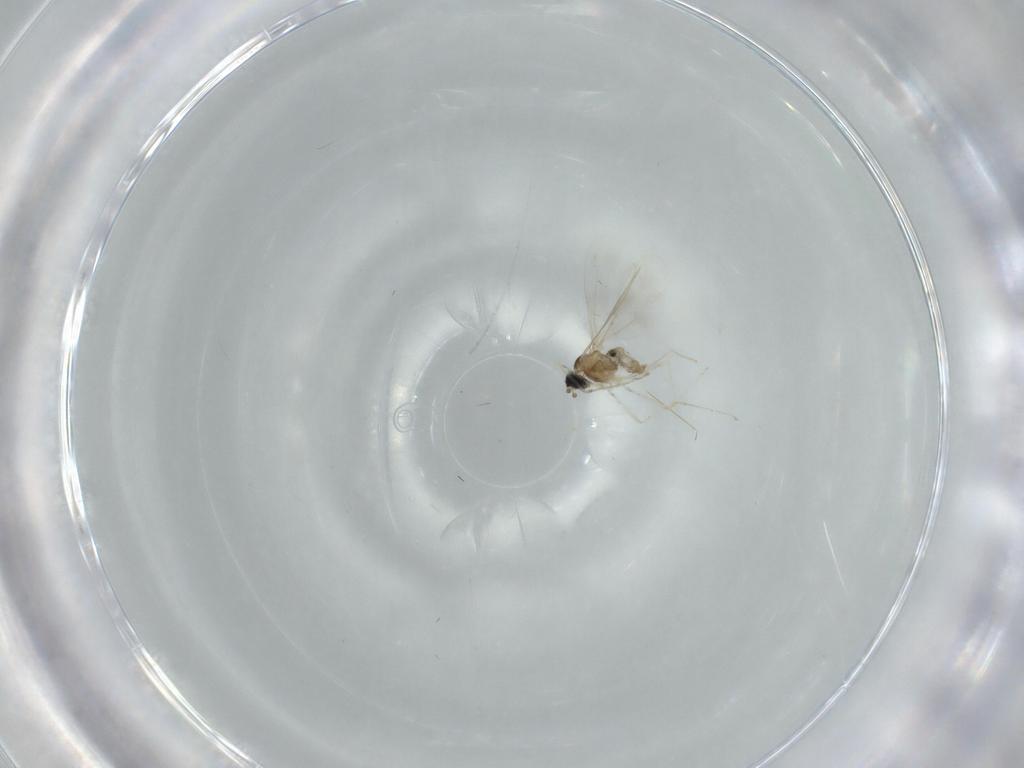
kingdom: Animalia
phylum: Arthropoda
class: Insecta
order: Diptera
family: Cecidomyiidae
